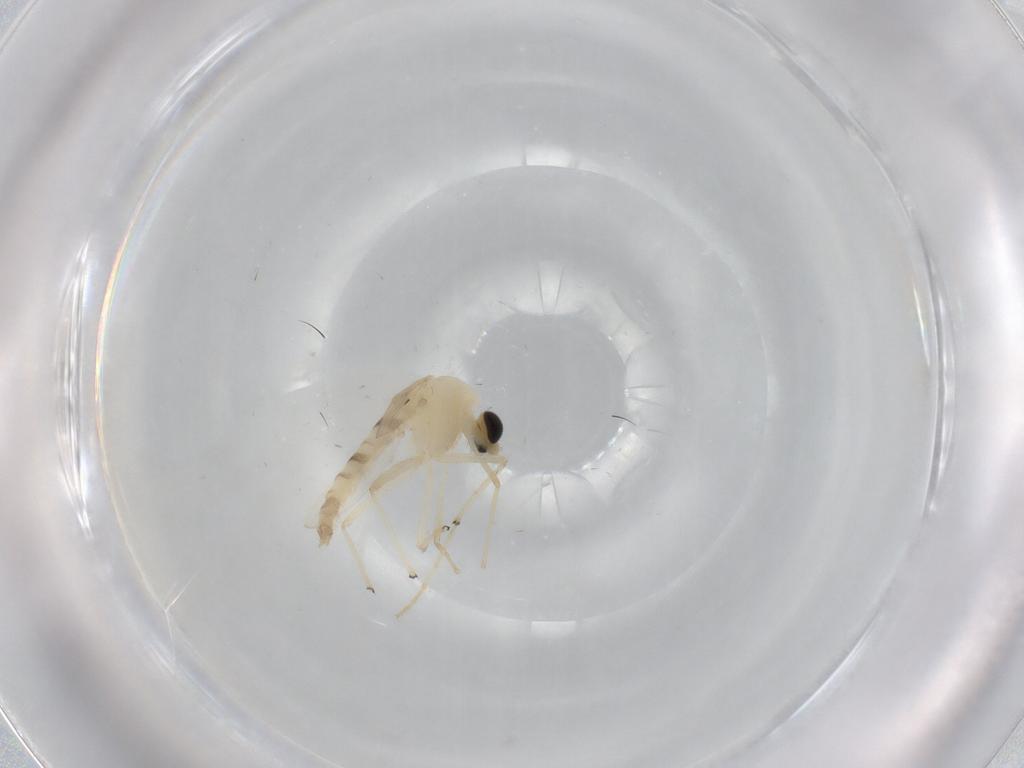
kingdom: Animalia
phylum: Arthropoda
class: Insecta
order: Diptera
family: Chironomidae
